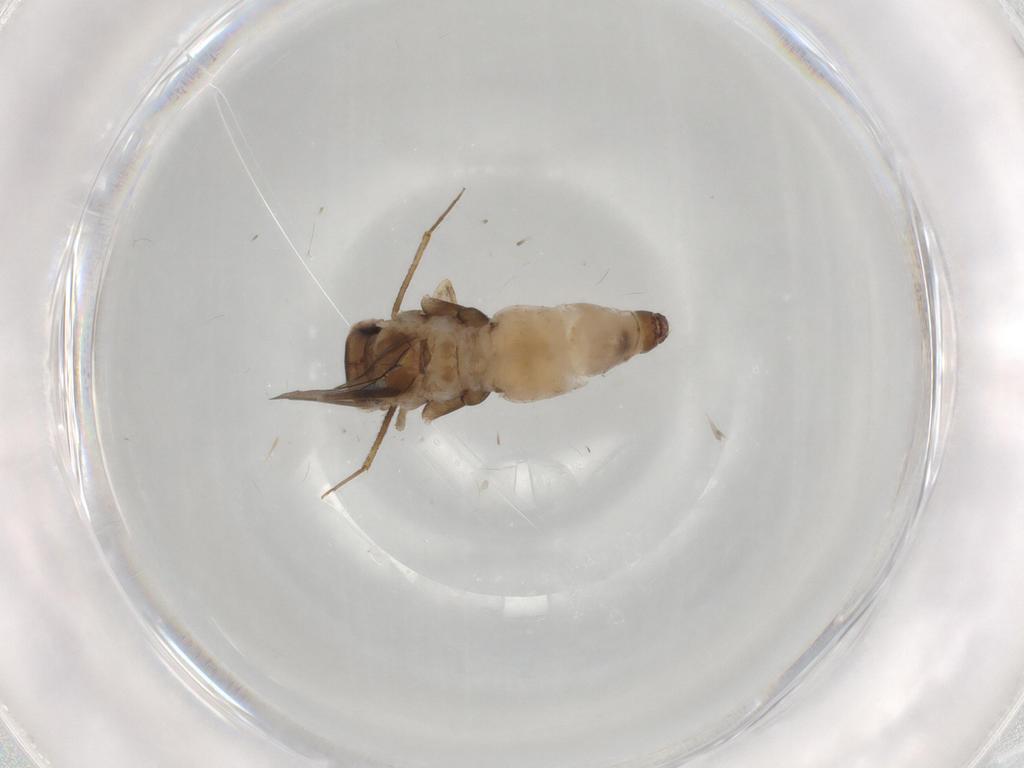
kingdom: Animalia
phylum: Arthropoda
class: Insecta
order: Psocodea
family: Lepidopsocidae
